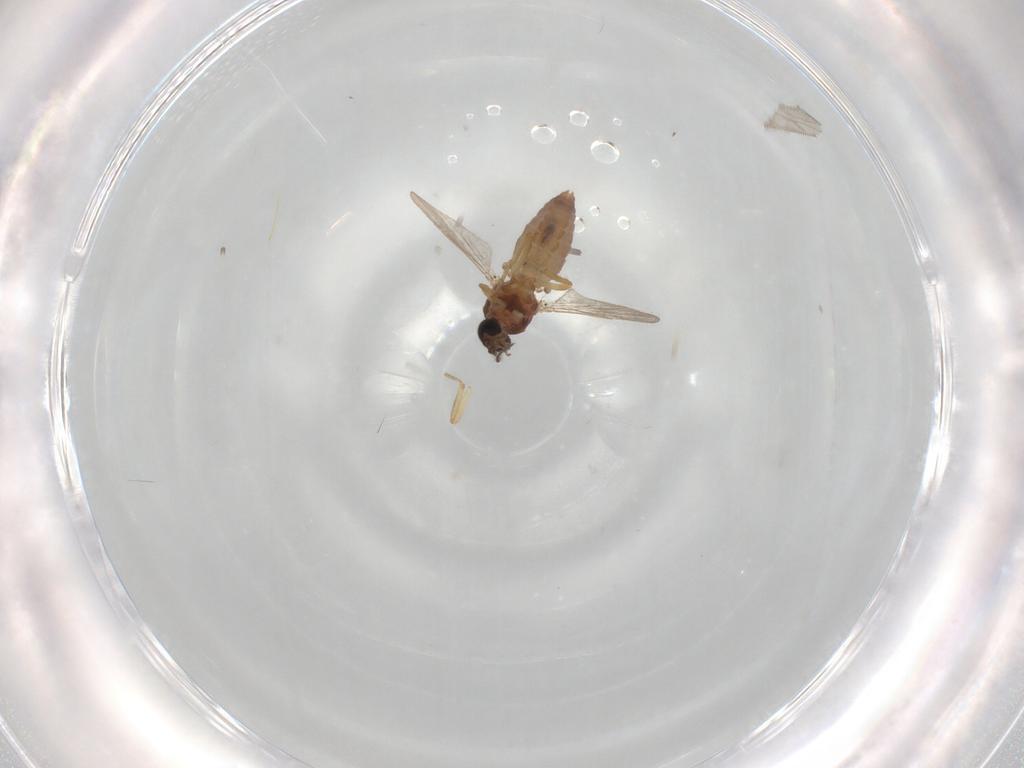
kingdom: Animalia
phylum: Arthropoda
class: Insecta
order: Diptera
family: Ceratopogonidae
